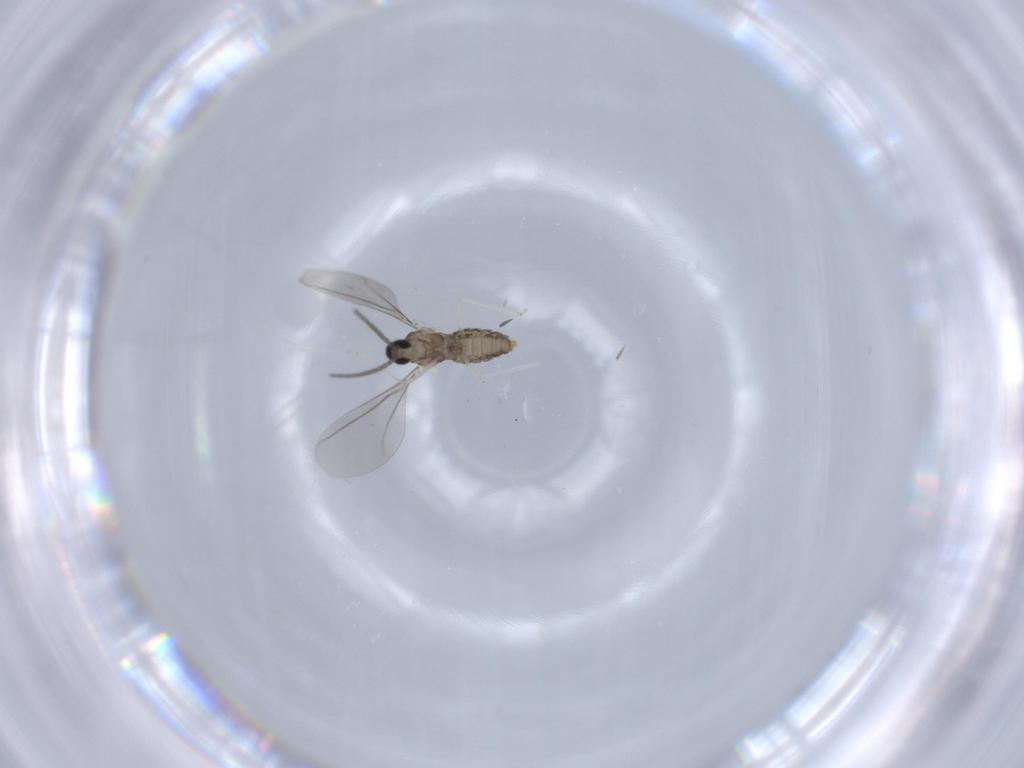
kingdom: Animalia
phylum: Arthropoda
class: Insecta
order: Diptera
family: Cecidomyiidae
